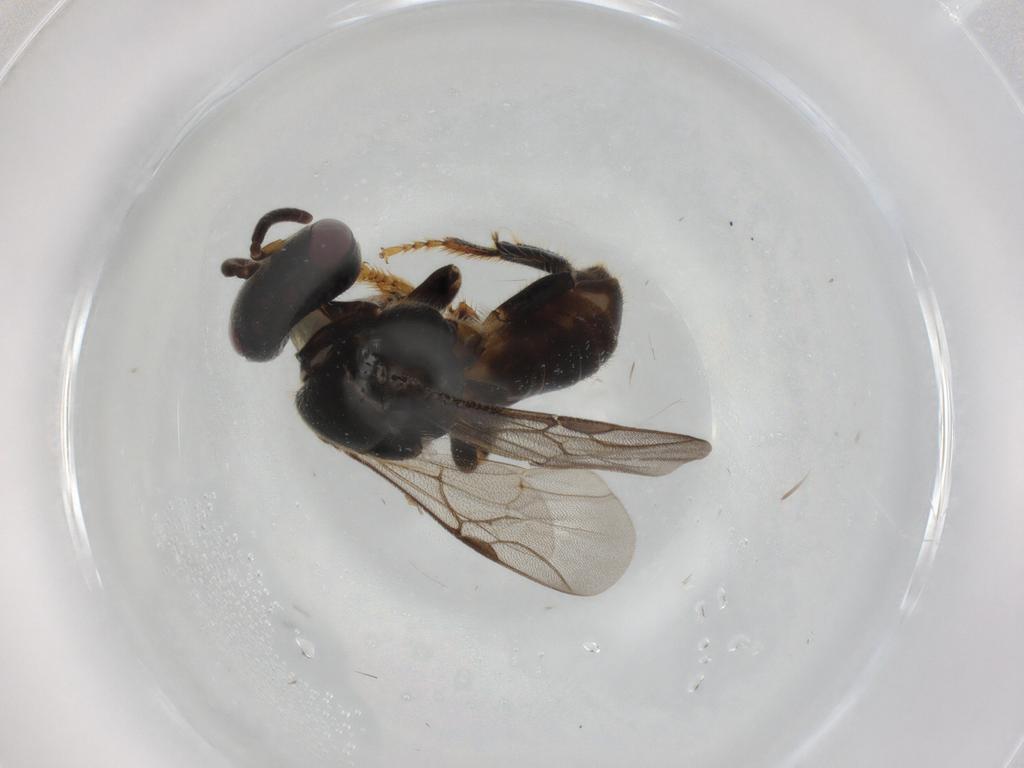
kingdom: Animalia
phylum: Arthropoda
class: Insecta
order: Hymenoptera
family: Apidae
